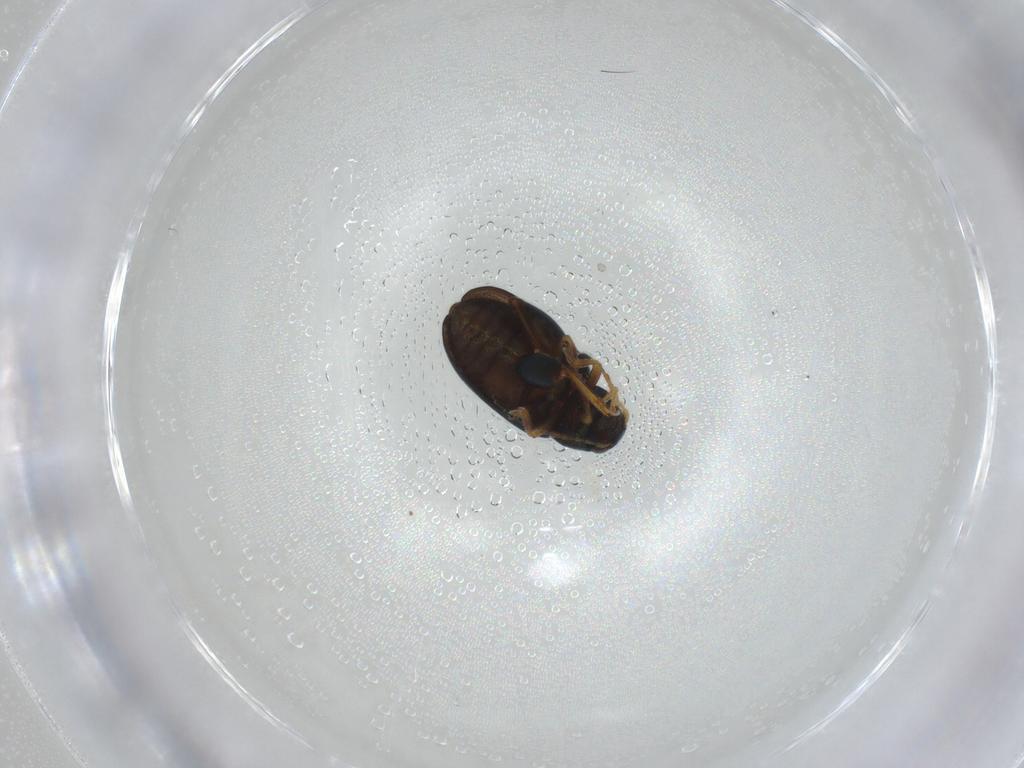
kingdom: Animalia
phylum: Arthropoda
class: Insecta
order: Coleoptera
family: Chrysomelidae
